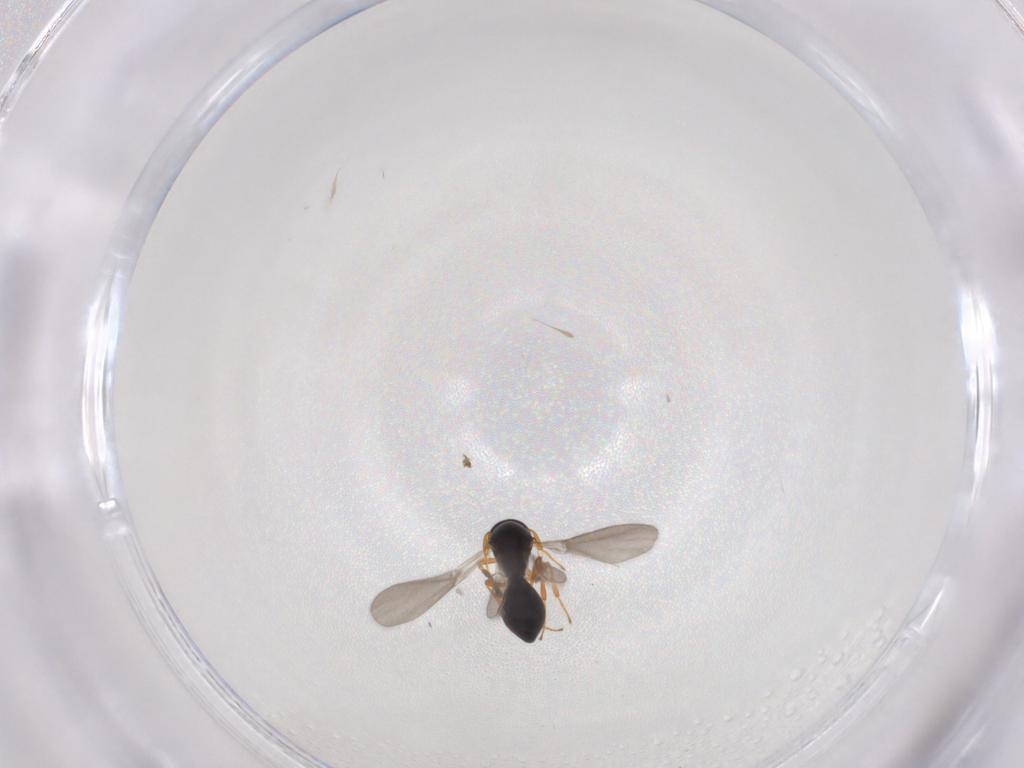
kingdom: Animalia
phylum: Arthropoda
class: Insecta
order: Hymenoptera
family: Platygastridae
